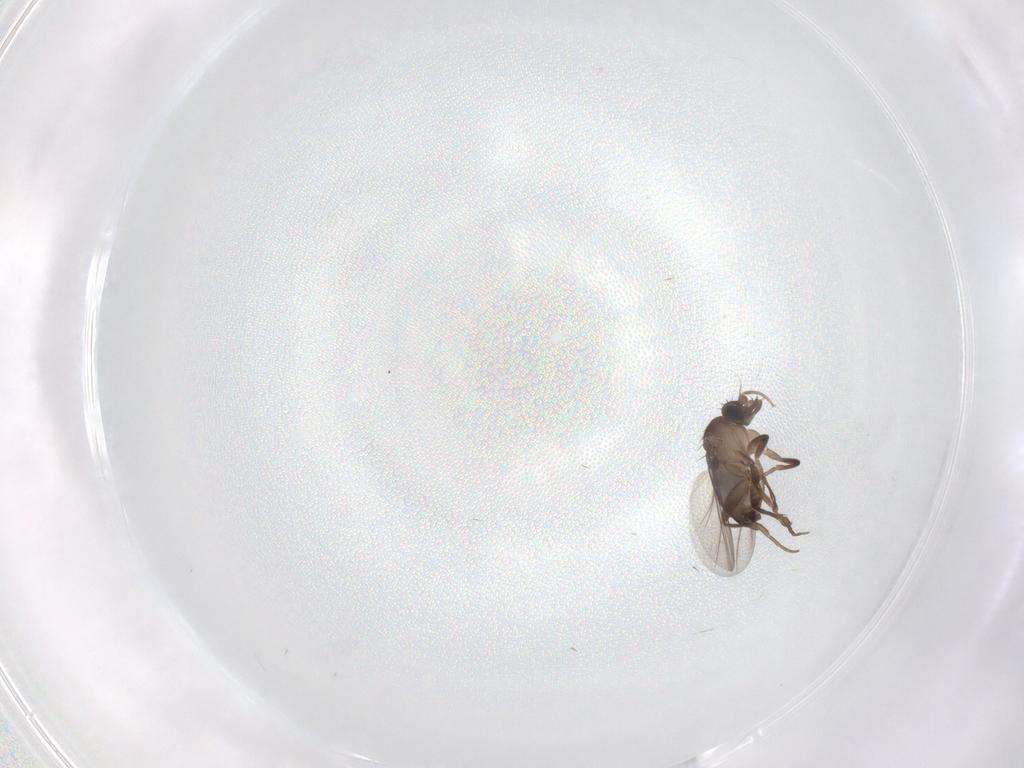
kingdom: Animalia
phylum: Arthropoda
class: Insecta
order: Diptera
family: Phoridae
